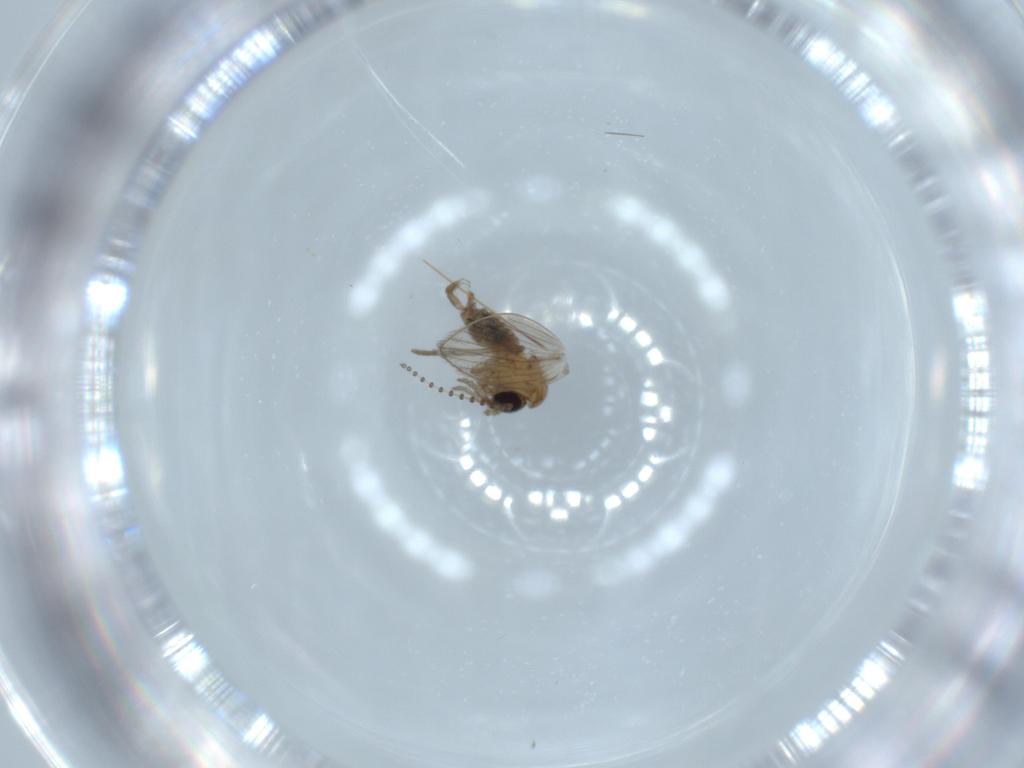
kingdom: Animalia
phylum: Arthropoda
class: Insecta
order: Diptera
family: Psychodidae
